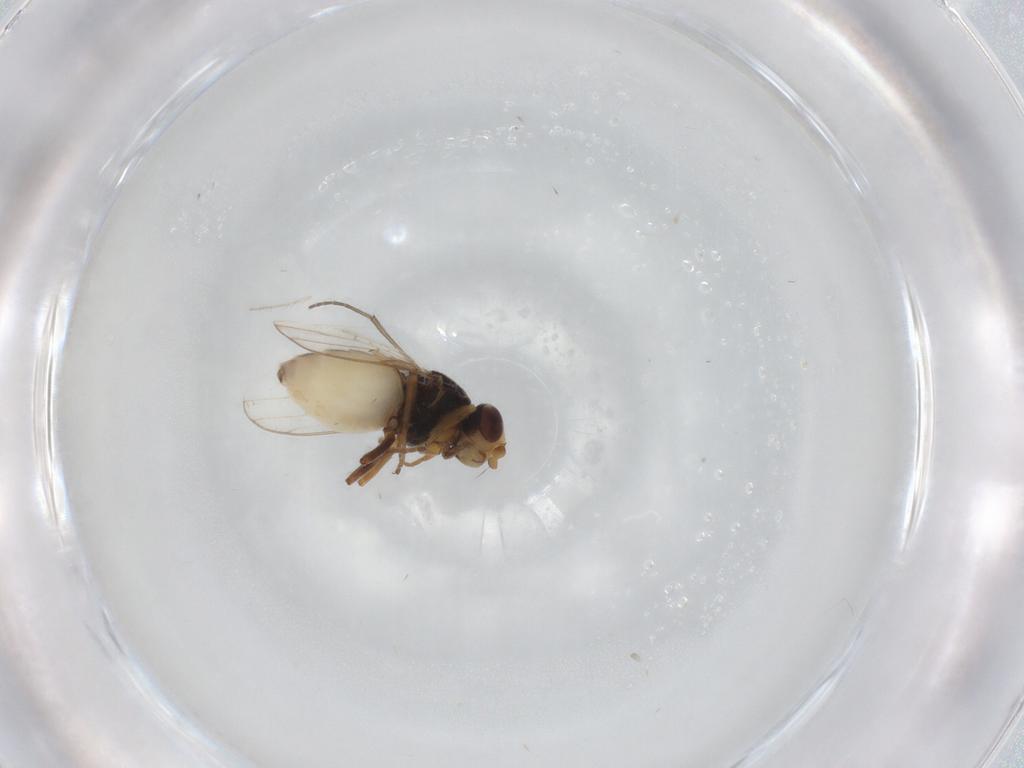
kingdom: Animalia
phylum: Arthropoda
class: Insecta
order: Diptera
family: Chloropidae
